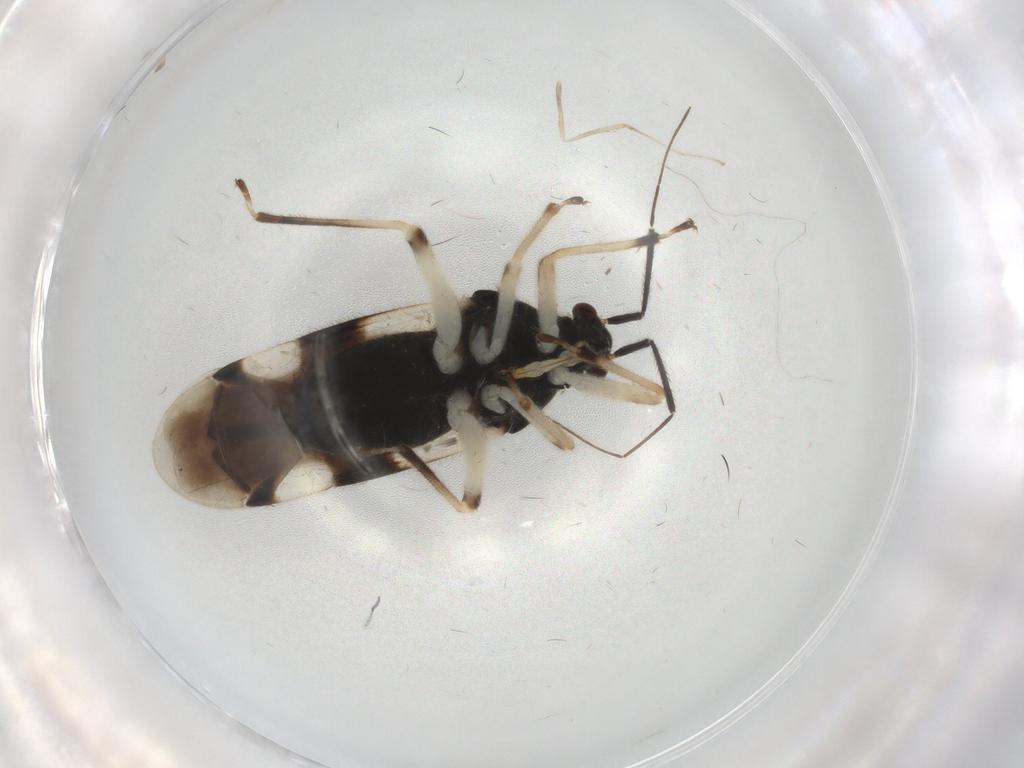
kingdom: Animalia
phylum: Arthropoda
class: Insecta
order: Hemiptera
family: Miridae
